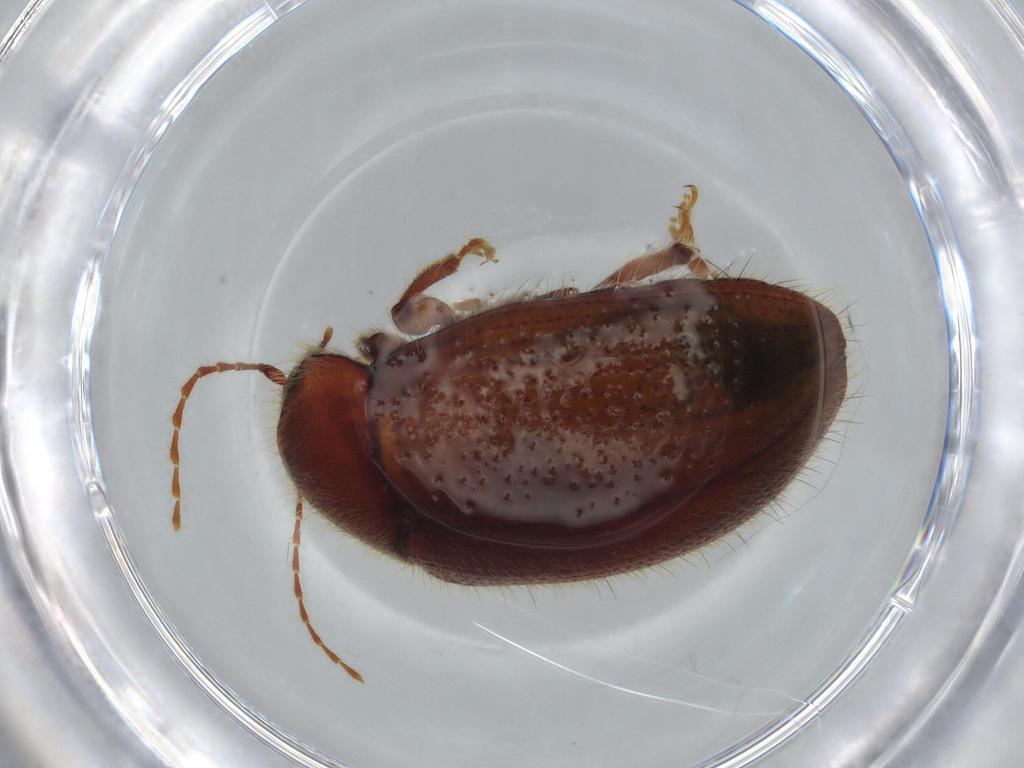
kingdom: Animalia
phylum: Arthropoda
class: Insecta
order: Coleoptera
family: Artematopodidae
